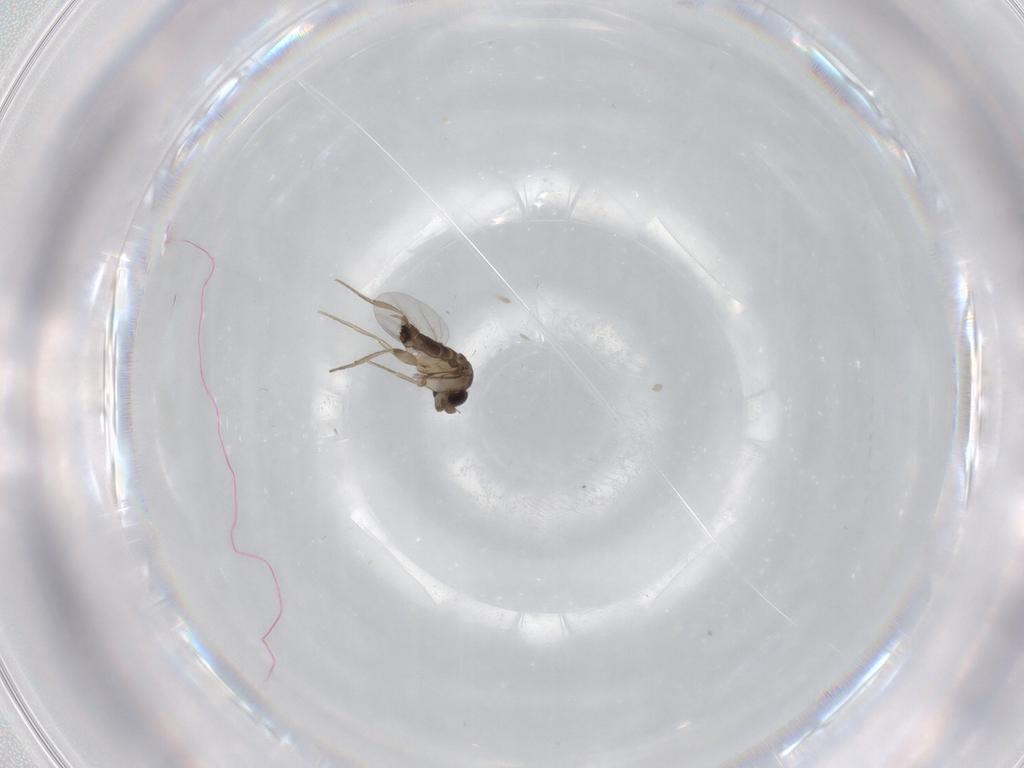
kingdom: Animalia
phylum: Arthropoda
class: Insecta
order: Diptera
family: Phoridae
